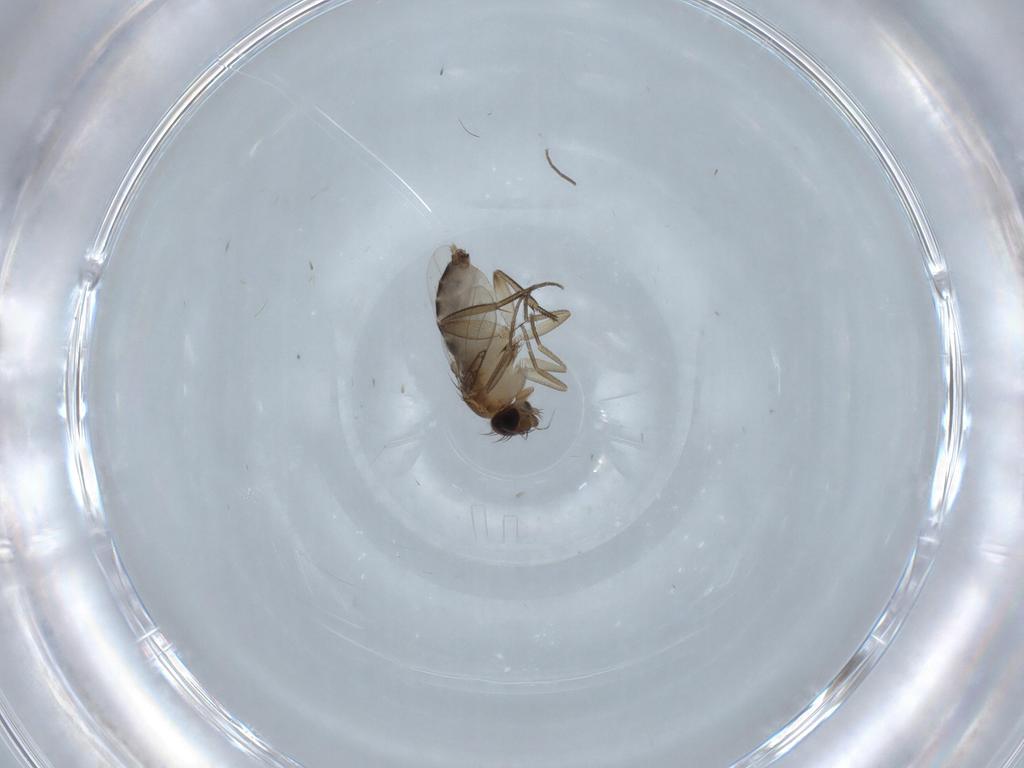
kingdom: Animalia
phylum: Arthropoda
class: Insecta
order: Diptera
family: Phoridae
